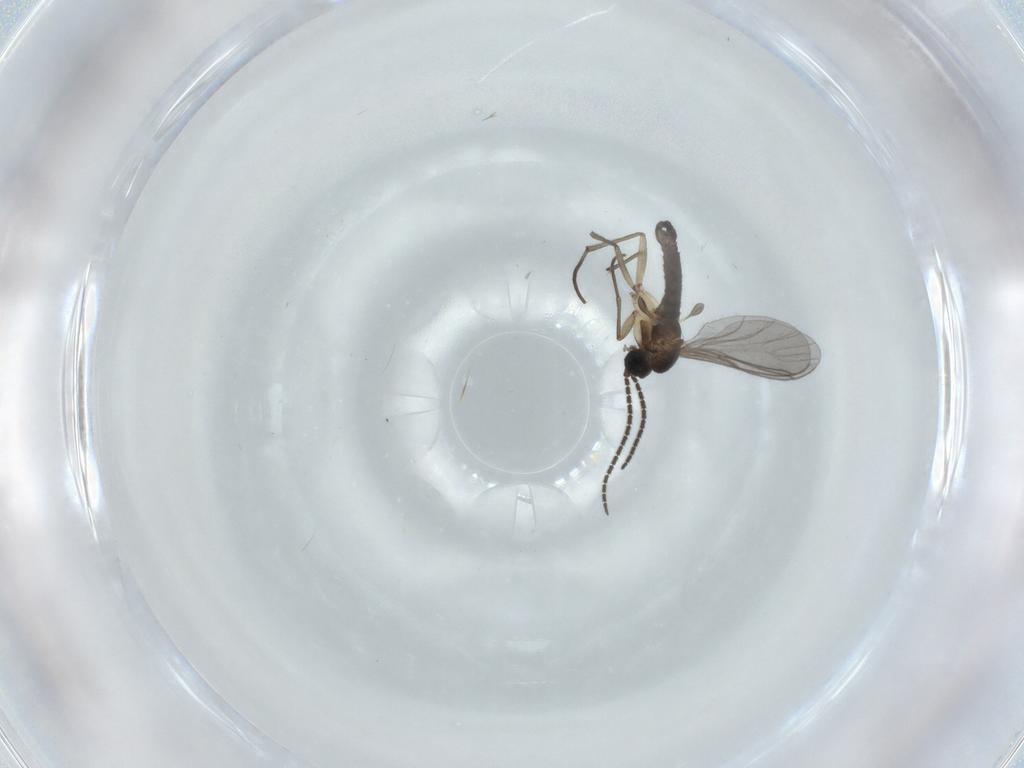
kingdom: Animalia
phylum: Arthropoda
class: Insecta
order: Diptera
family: Sciaridae
